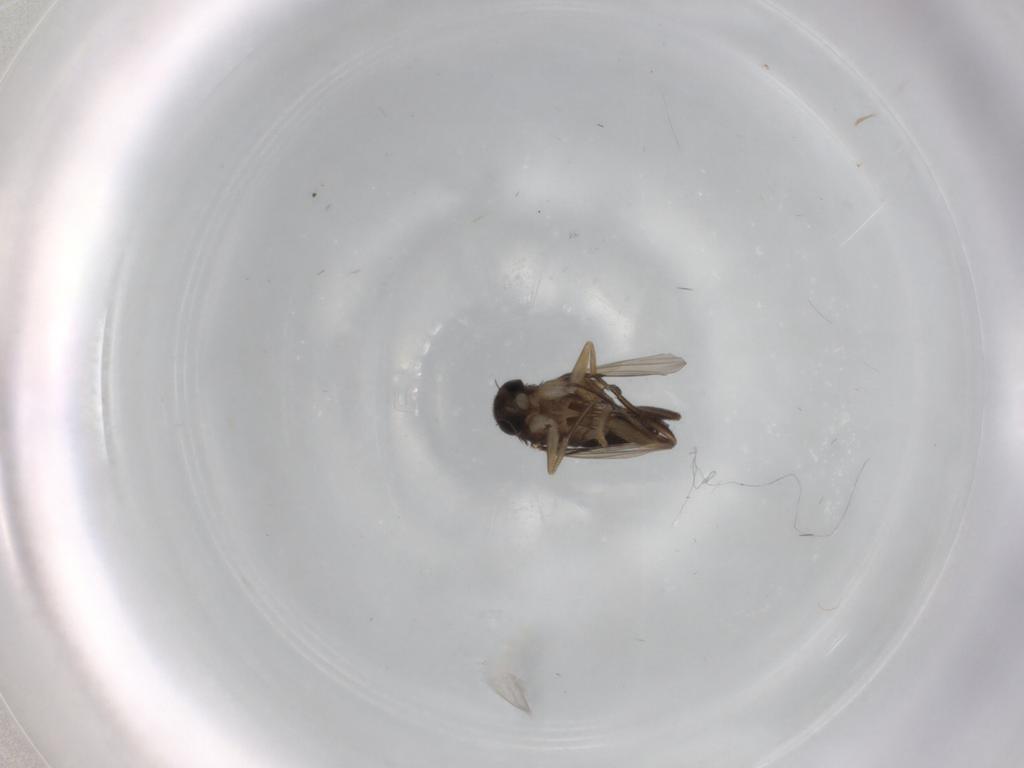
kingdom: Animalia
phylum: Arthropoda
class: Insecta
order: Diptera
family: Phoridae
